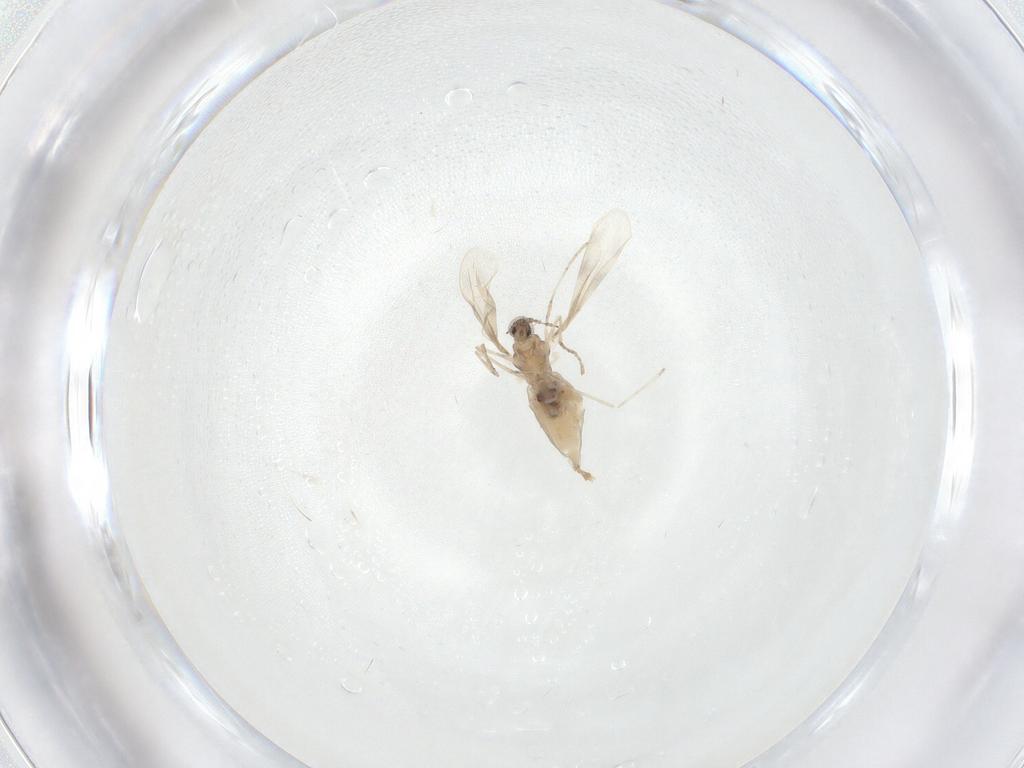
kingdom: Animalia
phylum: Arthropoda
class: Insecta
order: Diptera
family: Cecidomyiidae
